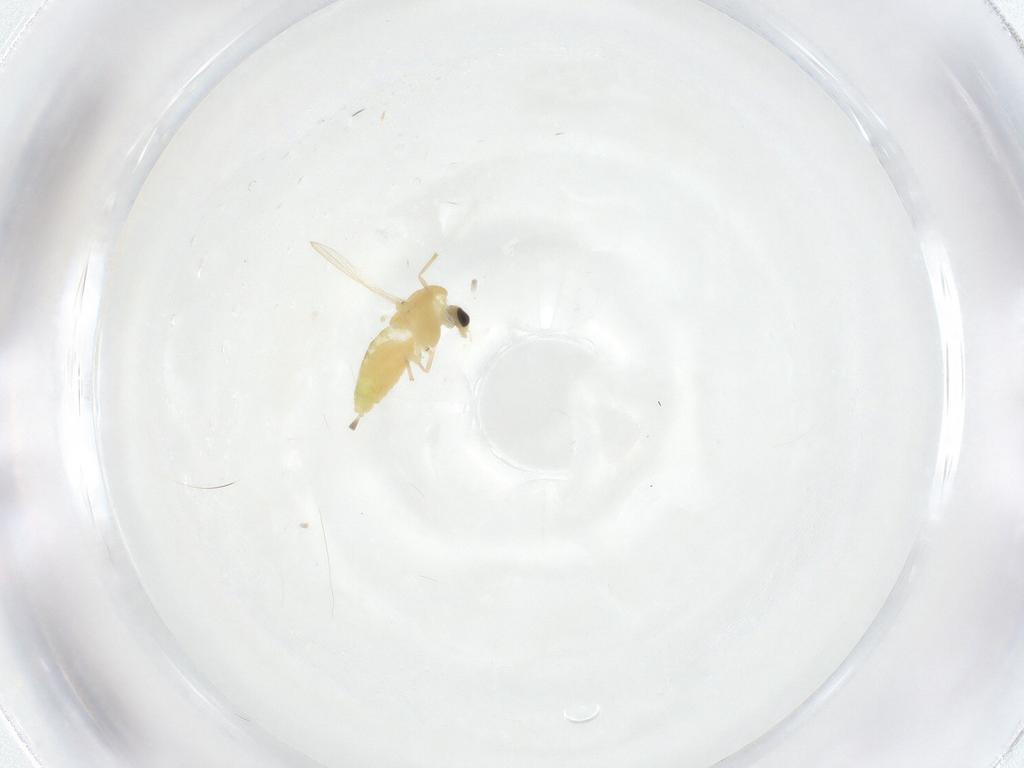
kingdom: Animalia
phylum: Arthropoda
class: Insecta
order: Diptera
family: Chironomidae
